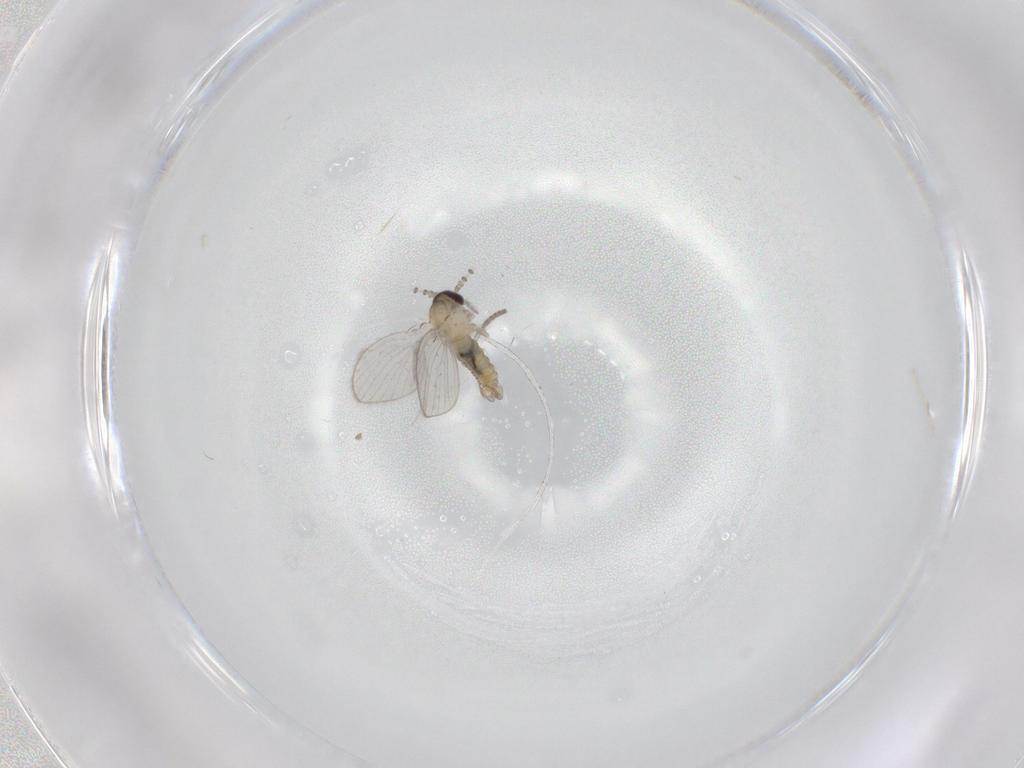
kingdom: Animalia
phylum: Arthropoda
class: Insecta
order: Diptera
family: Psychodidae
